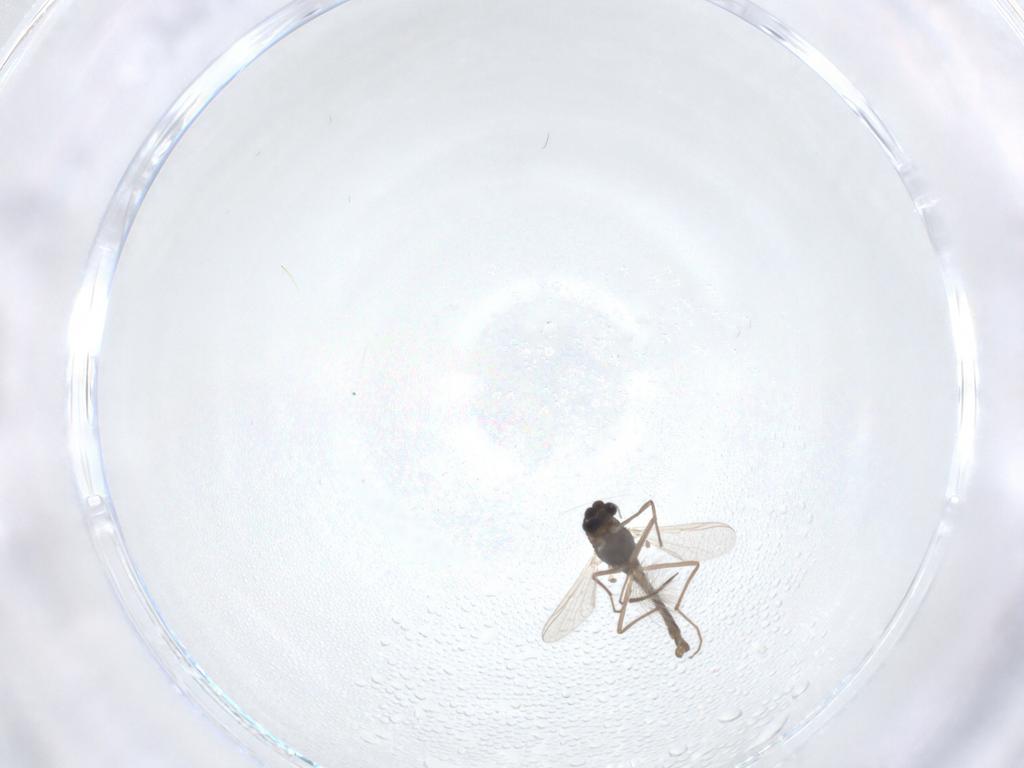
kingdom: Animalia
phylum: Arthropoda
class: Insecta
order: Diptera
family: Chironomidae
